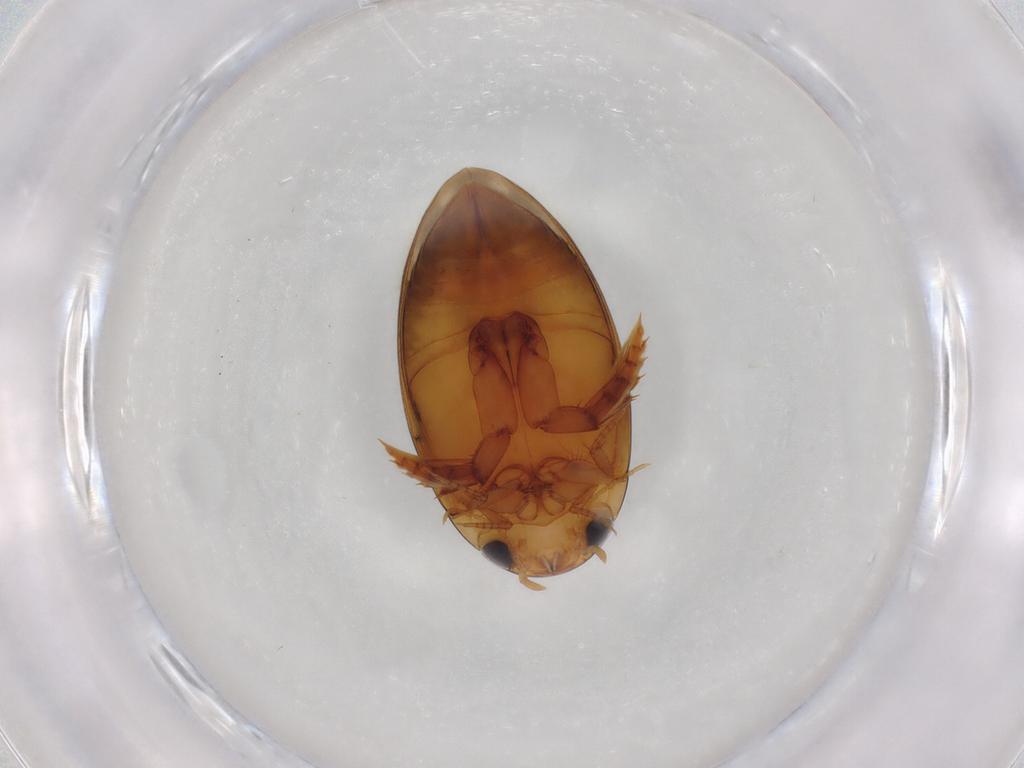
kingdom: Animalia
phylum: Arthropoda
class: Insecta
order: Coleoptera
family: Dytiscidae
